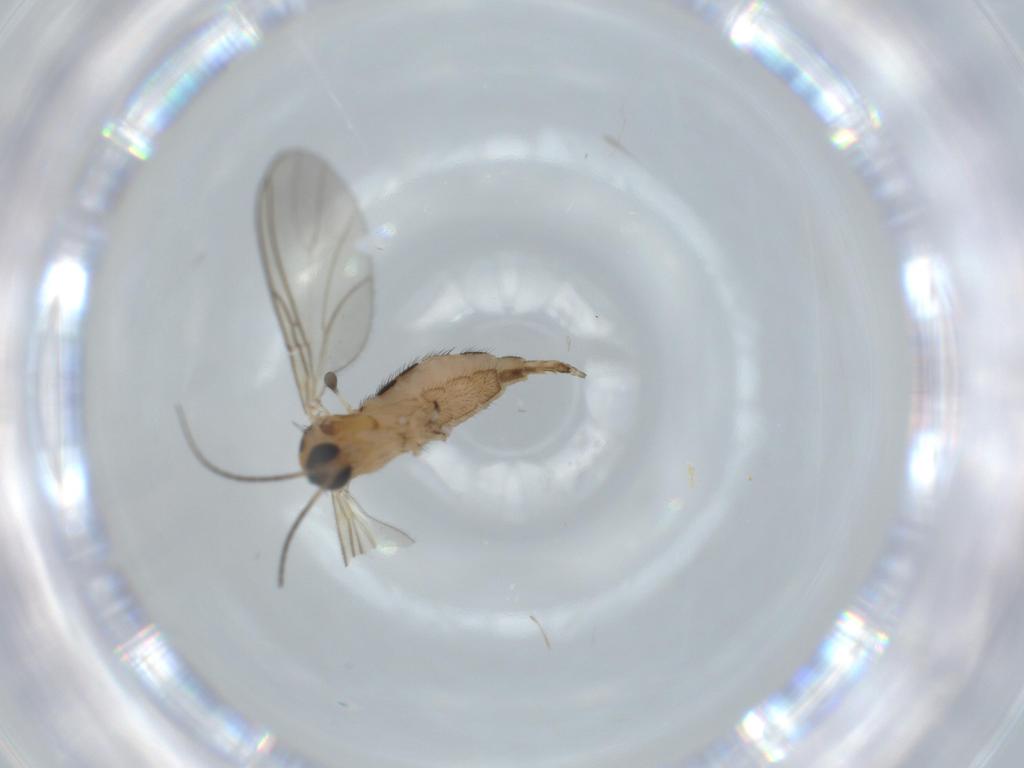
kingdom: Animalia
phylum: Arthropoda
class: Insecta
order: Diptera
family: Sciaridae
